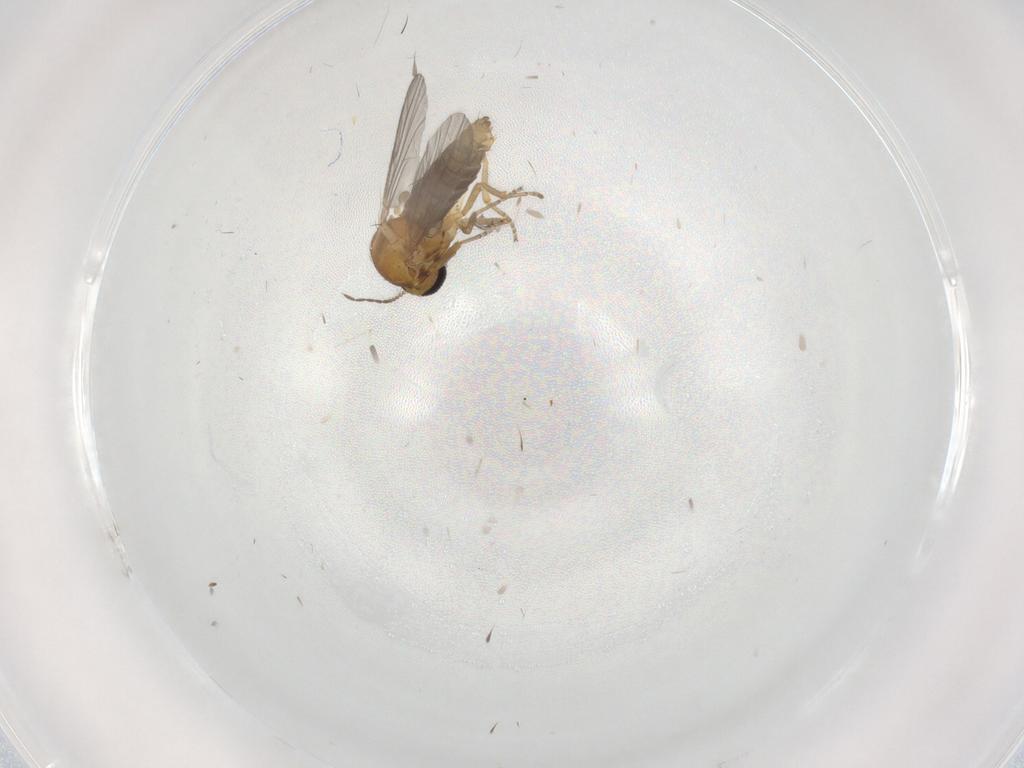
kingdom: Animalia
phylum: Arthropoda
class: Insecta
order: Diptera
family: Ceratopogonidae
